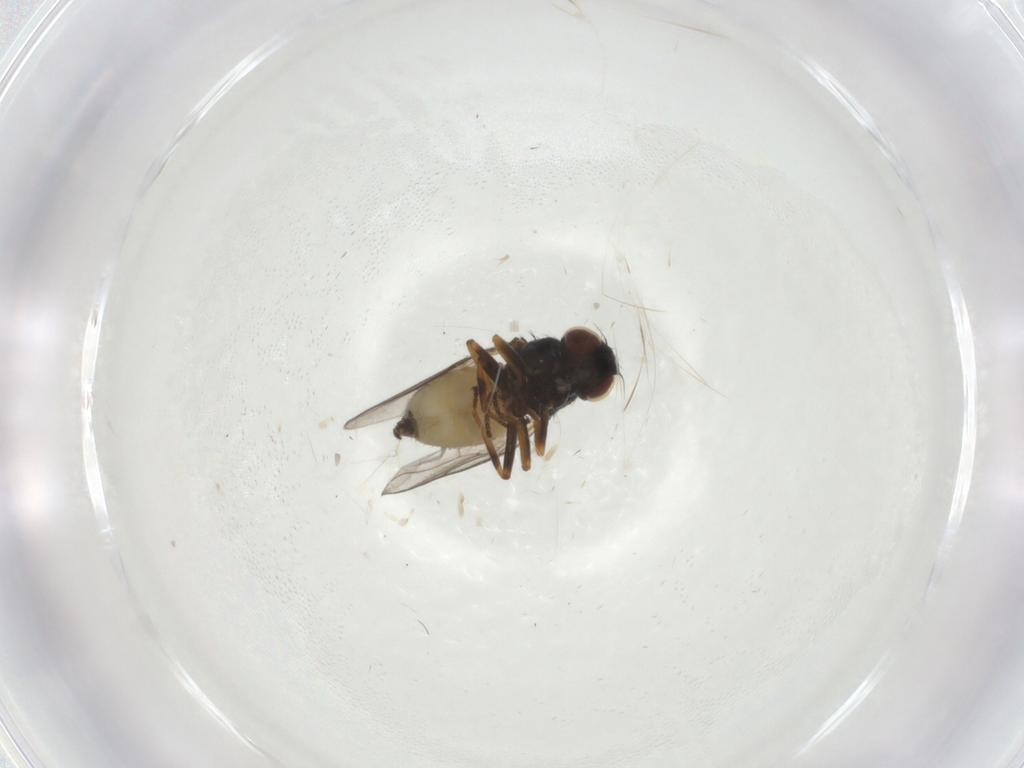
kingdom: Animalia
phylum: Arthropoda
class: Insecta
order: Diptera
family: Chloropidae
